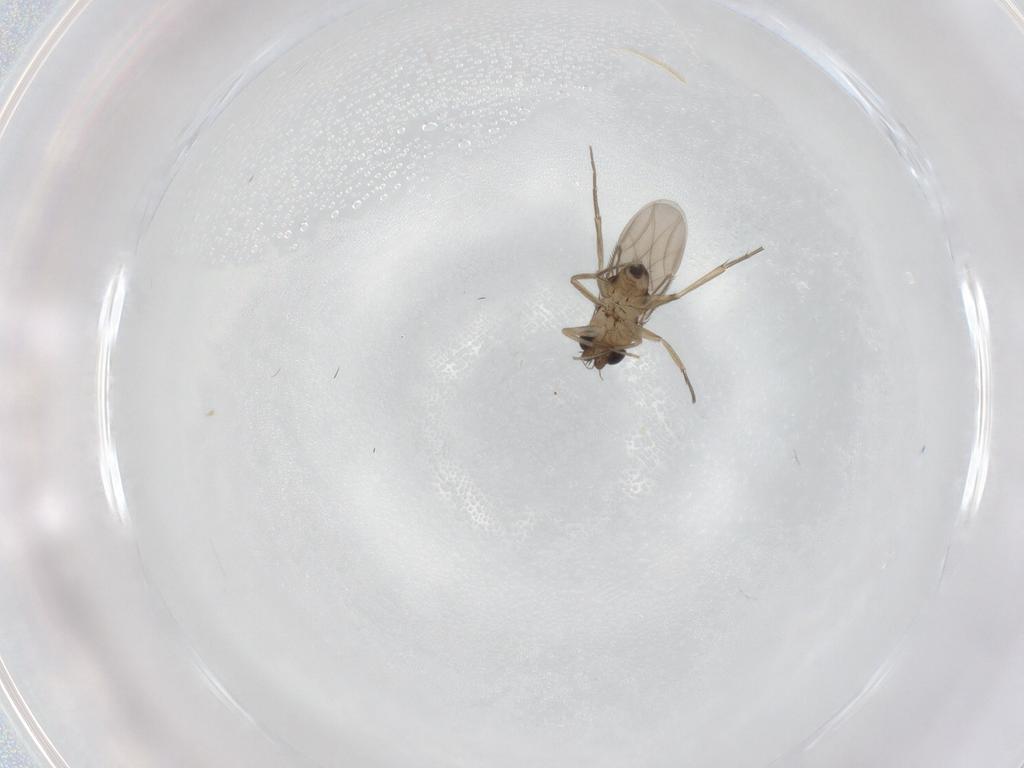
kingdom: Animalia
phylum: Arthropoda
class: Insecta
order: Diptera
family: Phoridae
